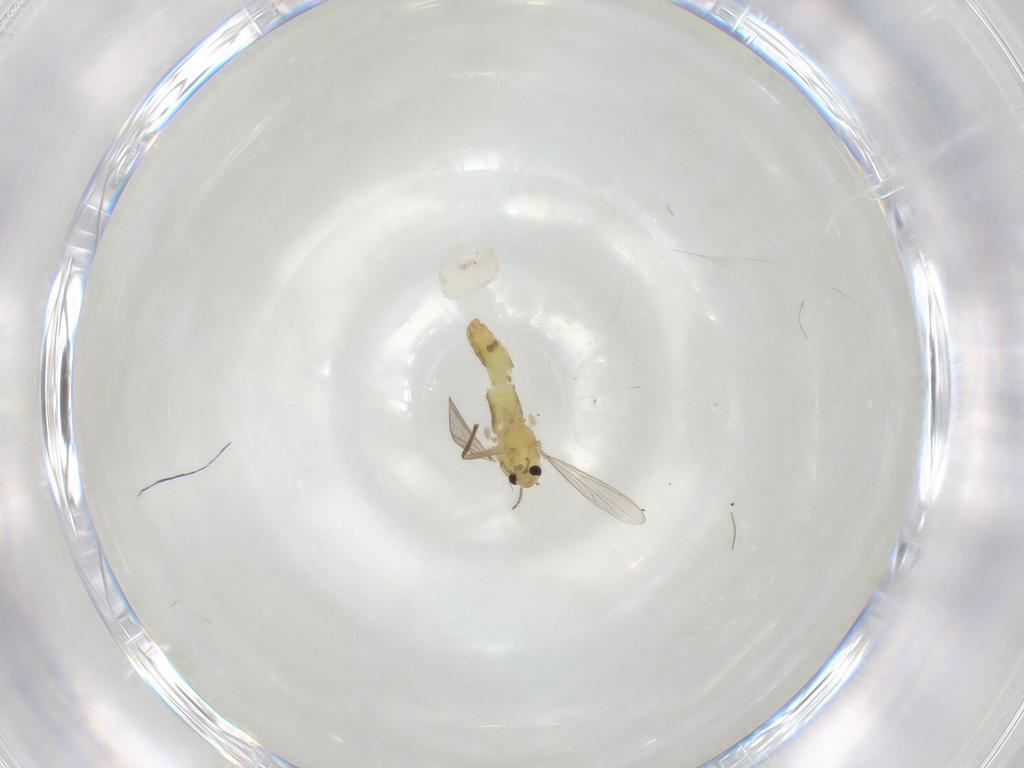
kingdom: Animalia
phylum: Arthropoda
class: Insecta
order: Diptera
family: Chironomidae
